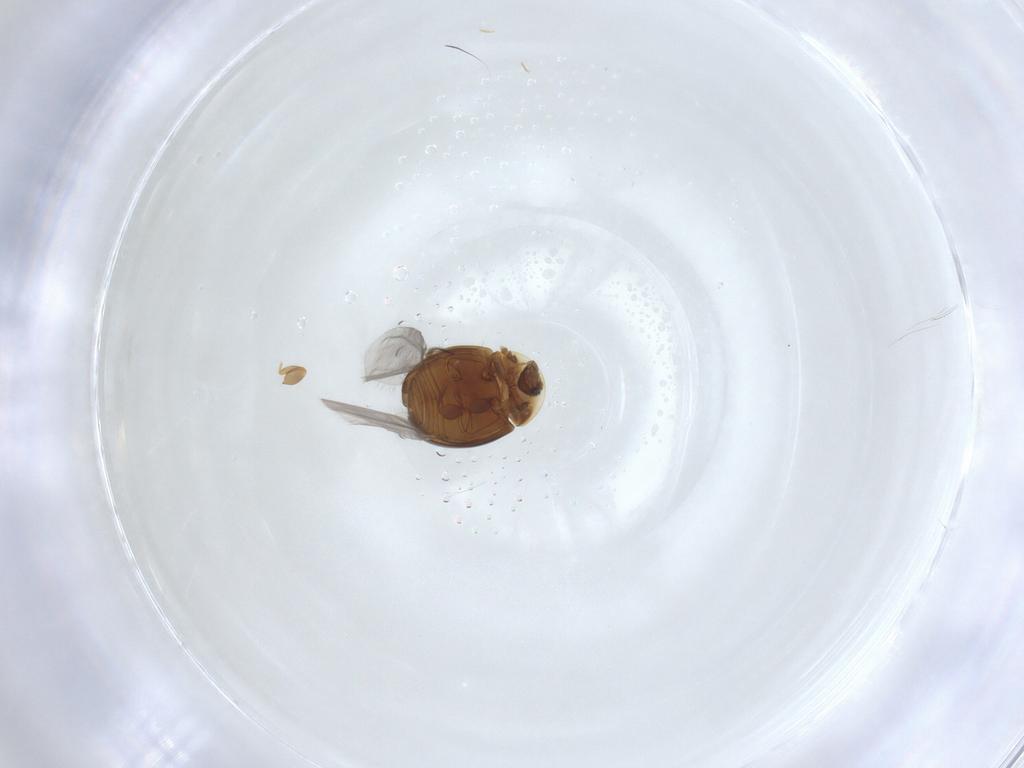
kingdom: Animalia
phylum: Arthropoda
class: Insecta
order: Coleoptera
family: Corylophidae
